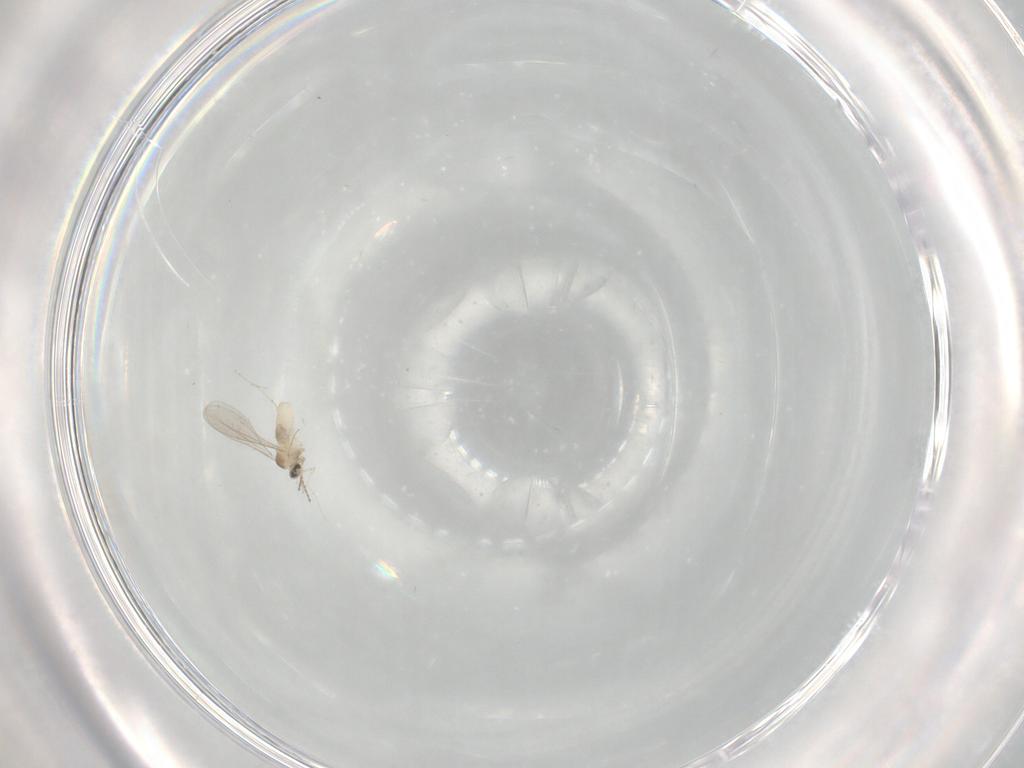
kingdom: Animalia
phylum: Arthropoda
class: Insecta
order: Diptera
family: Cecidomyiidae
